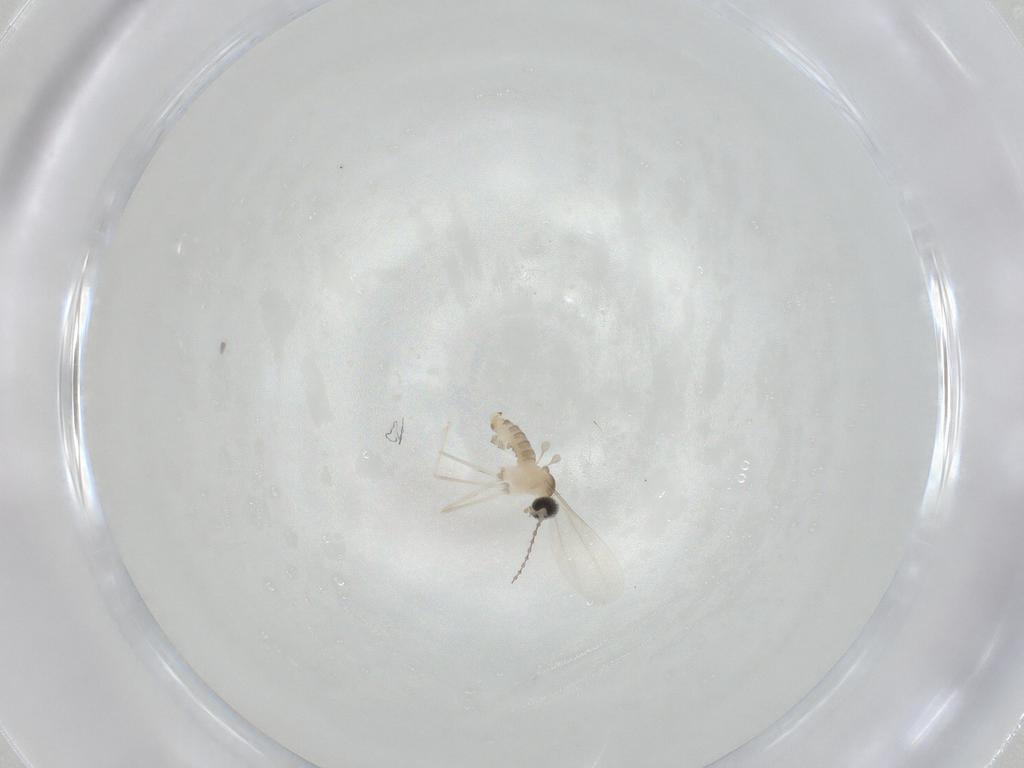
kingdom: Animalia
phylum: Arthropoda
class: Insecta
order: Diptera
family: Cecidomyiidae
